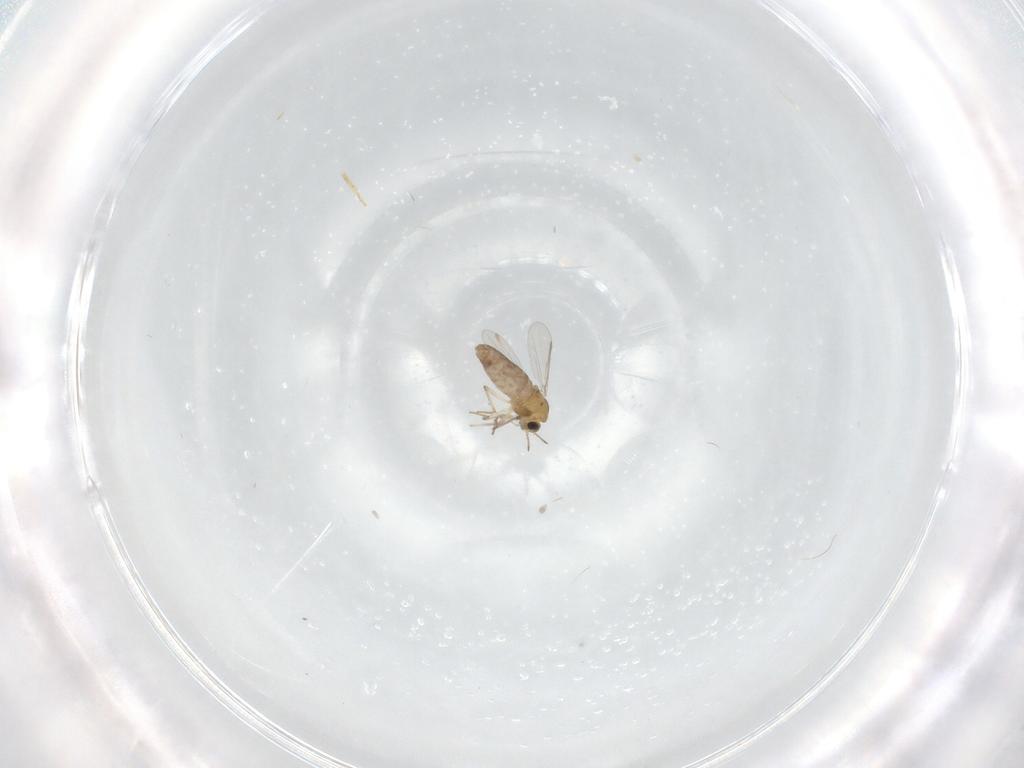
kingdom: Animalia
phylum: Arthropoda
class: Insecta
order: Diptera
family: Chironomidae
